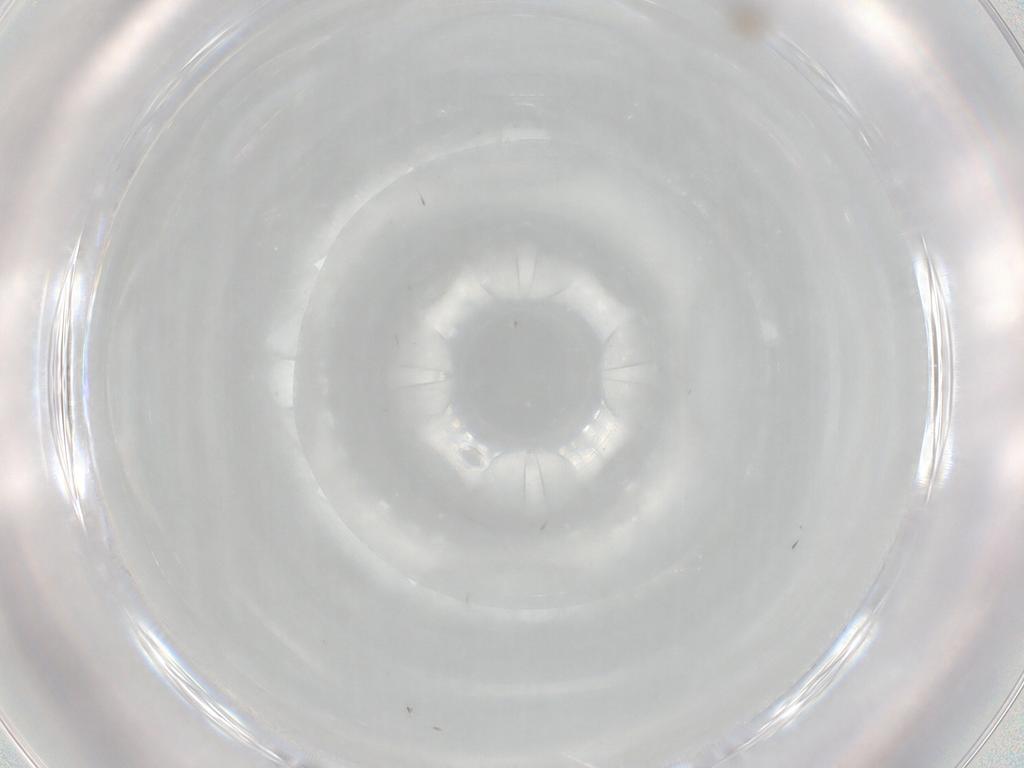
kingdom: Animalia
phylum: Arthropoda
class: Insecta
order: Diptera
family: Cecidomyiidae
